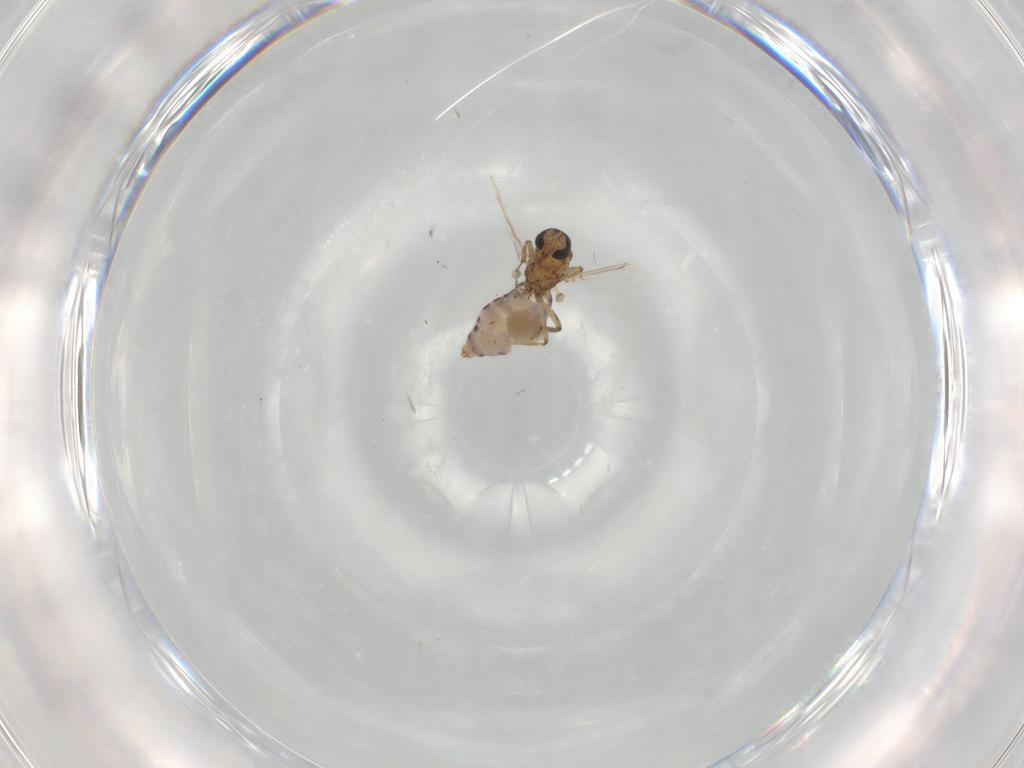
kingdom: Animalia
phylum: Arthropoda
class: Insecta
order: Diptera
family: Ceratopogonidae
